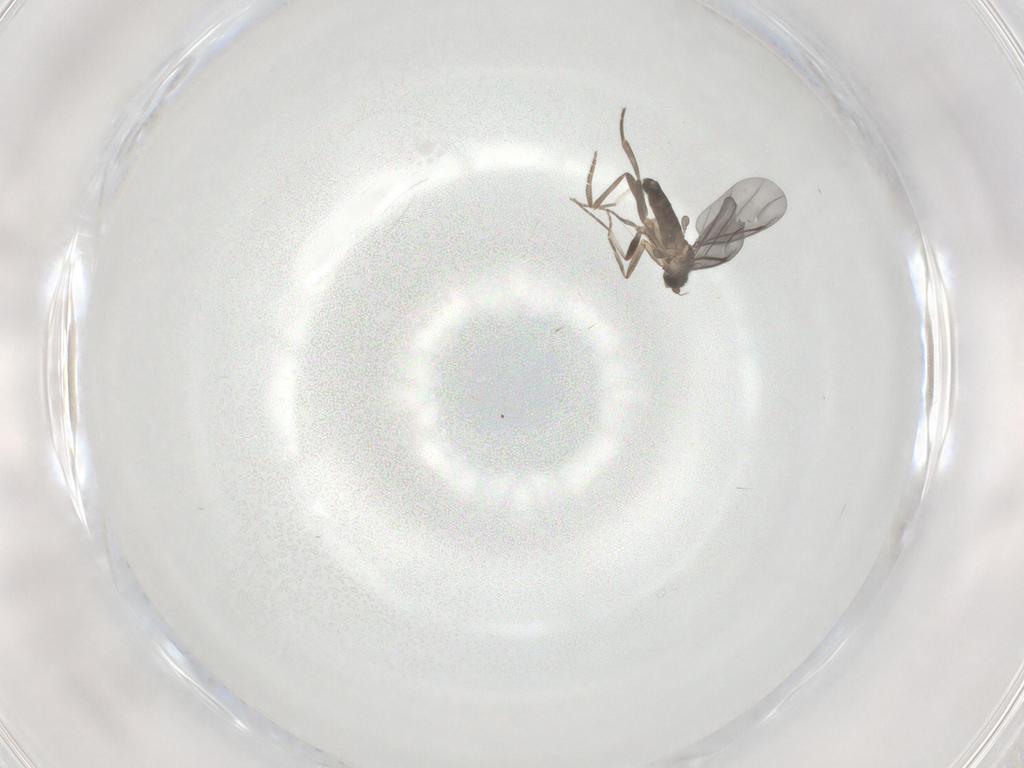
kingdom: Animalia
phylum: Arthropoda
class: Insecta
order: Diptera
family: Phoridae
